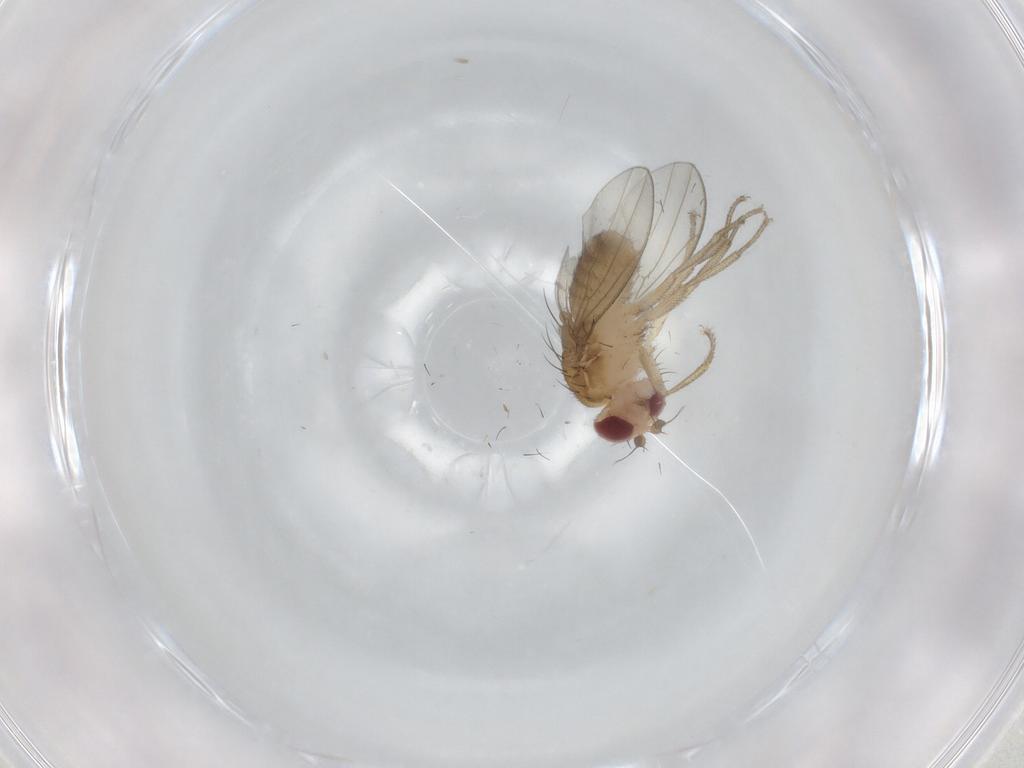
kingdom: Animalia
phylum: Arthropoda
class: Insecta
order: Diptera
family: Drosophilidae
